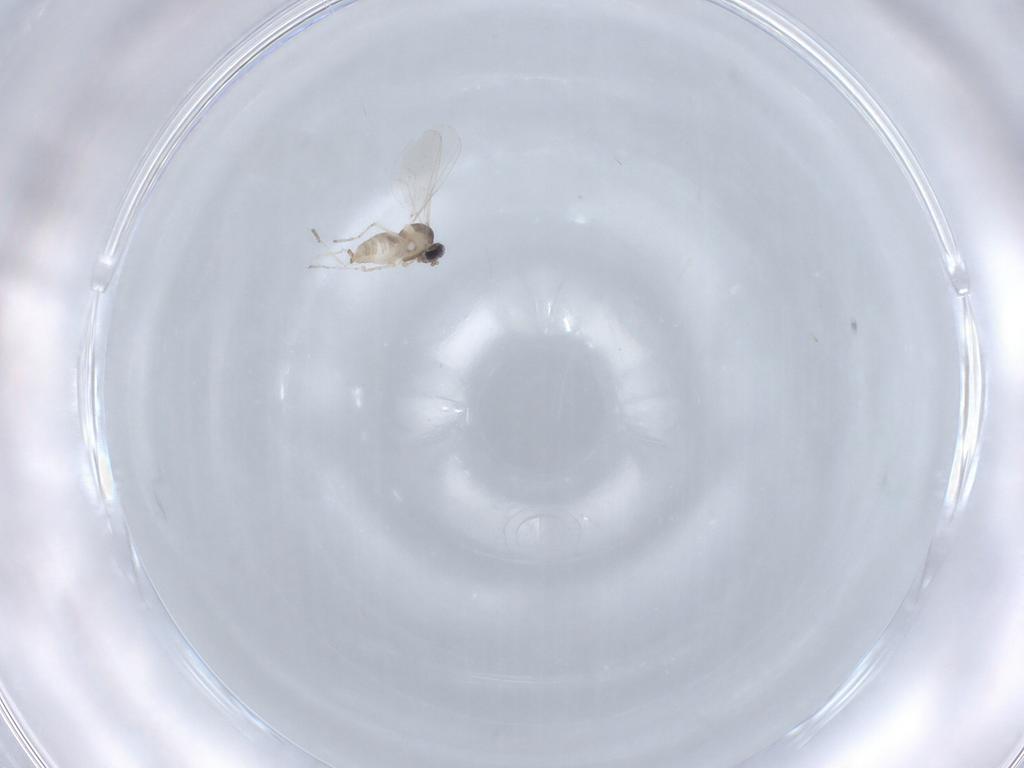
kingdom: Animalia
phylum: Arthropoda
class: Insecta
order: Diptera
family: Cecidomyiidae
